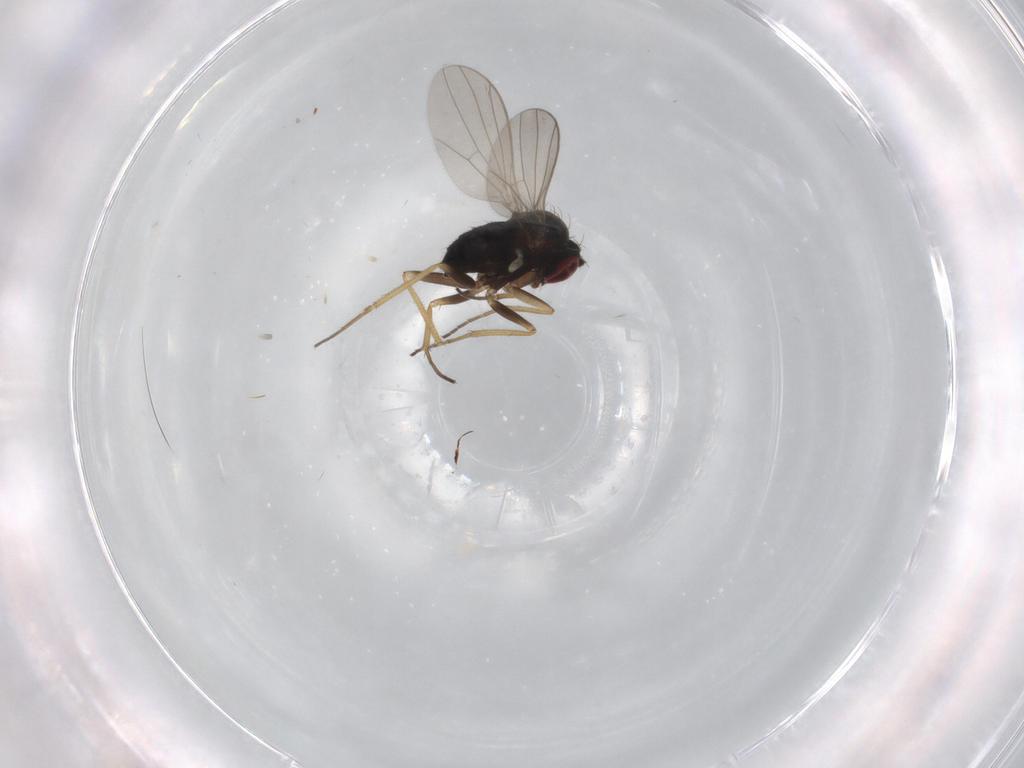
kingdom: Animalia
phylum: Arthropoda
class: Insecta
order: Diptera
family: Dolichopodidae
